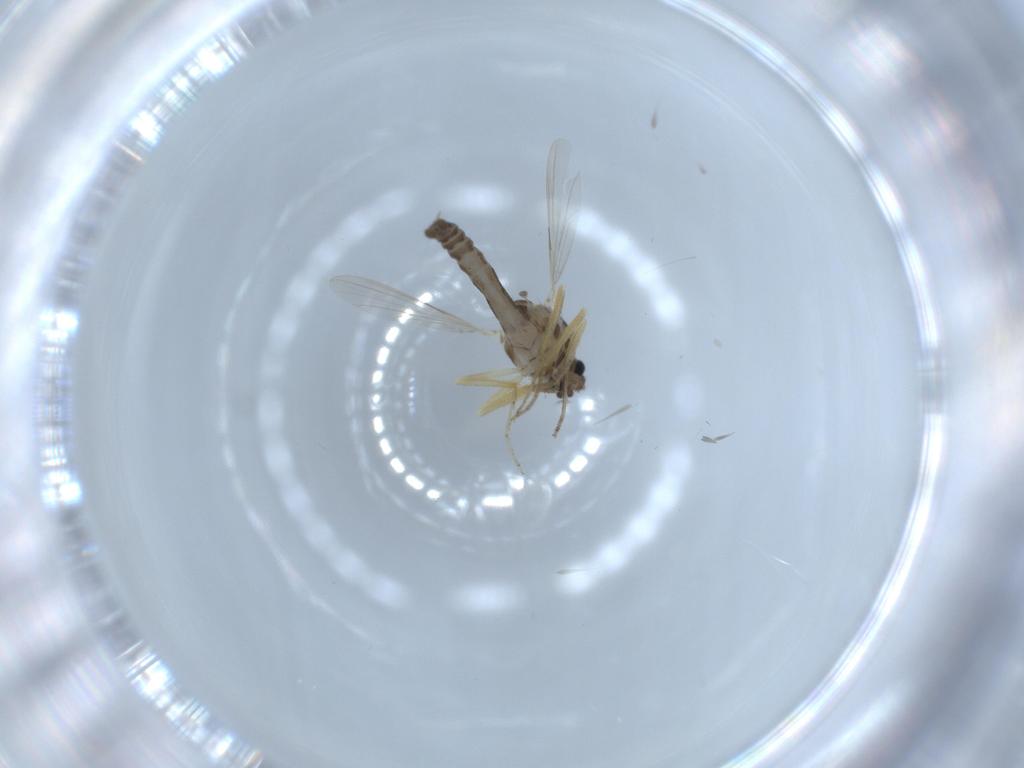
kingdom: Animalia
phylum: Arthropoda
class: Insecta
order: Diptera
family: Ceratopogonidae
